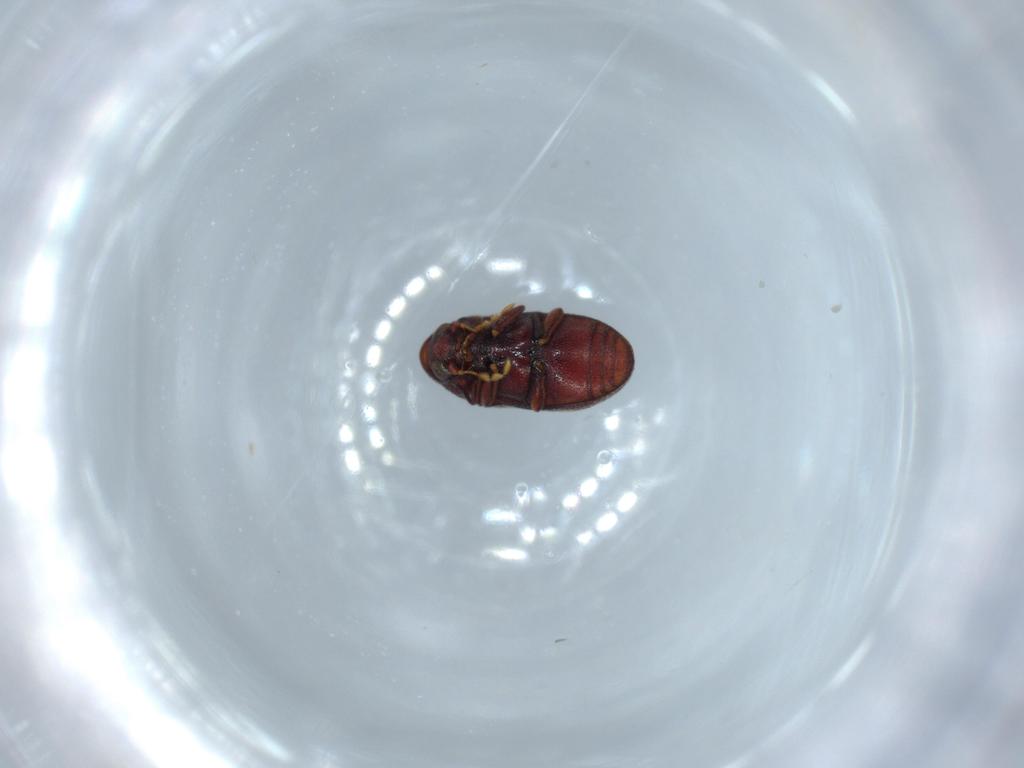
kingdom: Animalia
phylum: Arthropoda
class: Insecta
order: Coleoptera
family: Ptinidae
